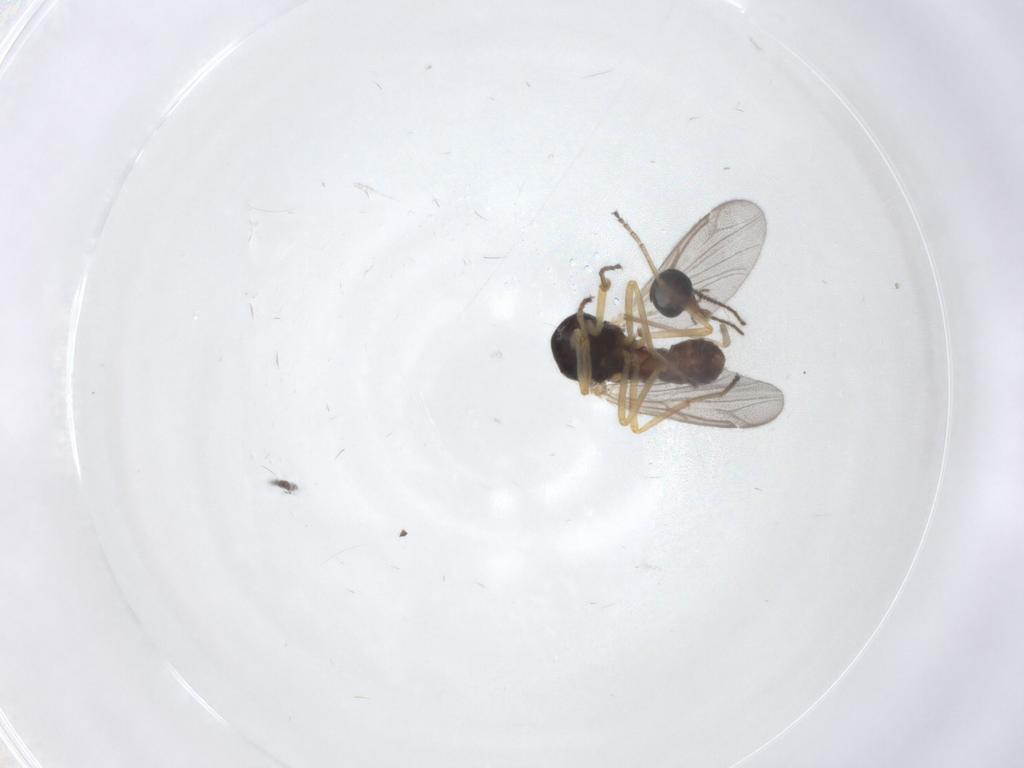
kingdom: Animalia
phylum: Arthropoda
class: Insecta
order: Diptera
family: Ceratopogonidae
